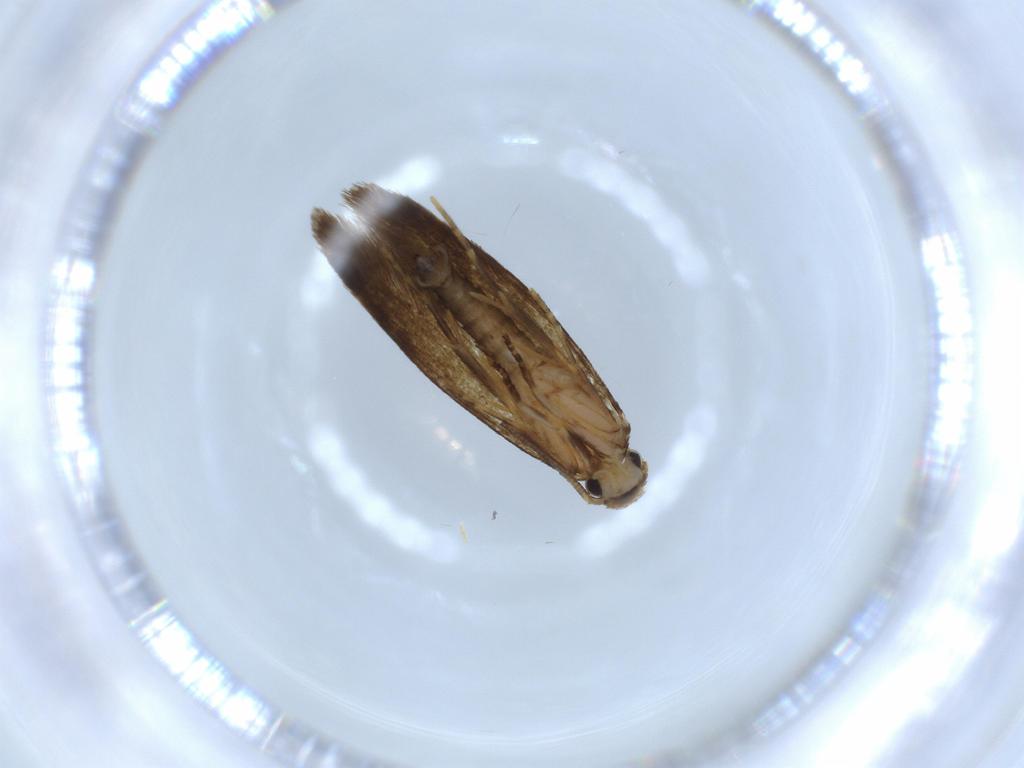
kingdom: Animalia
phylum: Arthropoda
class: Insecta
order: Lepidoptera
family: Tineidae
